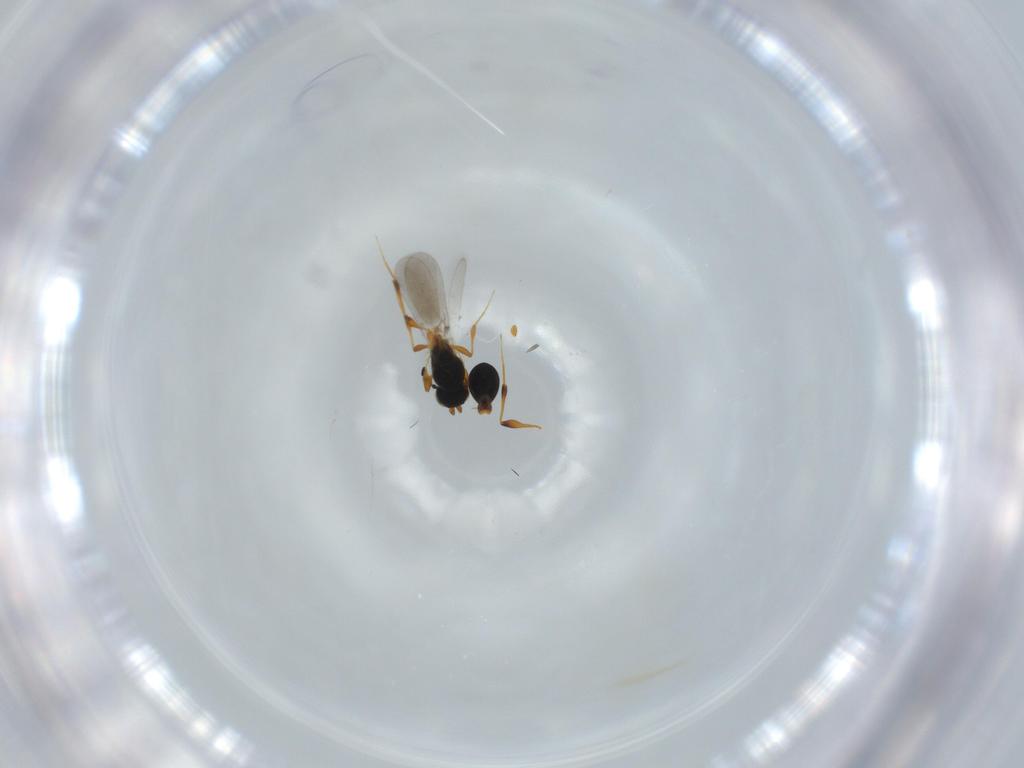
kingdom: Animalia
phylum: Arthropoda
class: Insecta
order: Hymenoptera
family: Platygastridae
